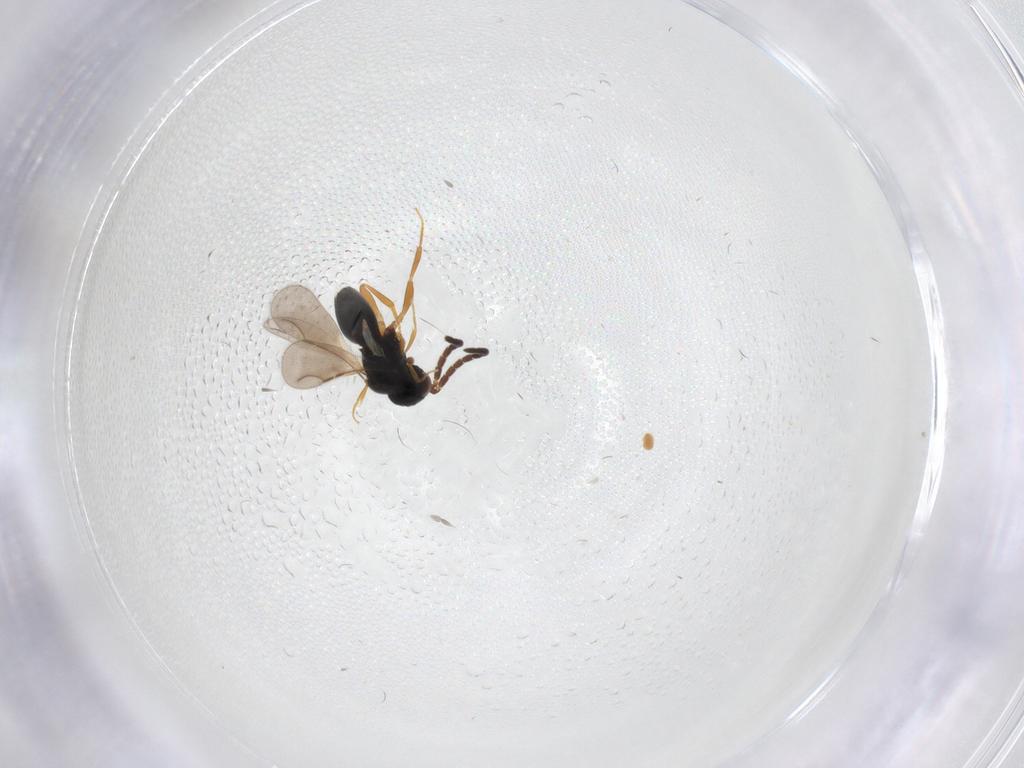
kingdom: Animalia
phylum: Arthropoda
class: Insecta
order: Hymenoptera
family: Ceraphronidae
